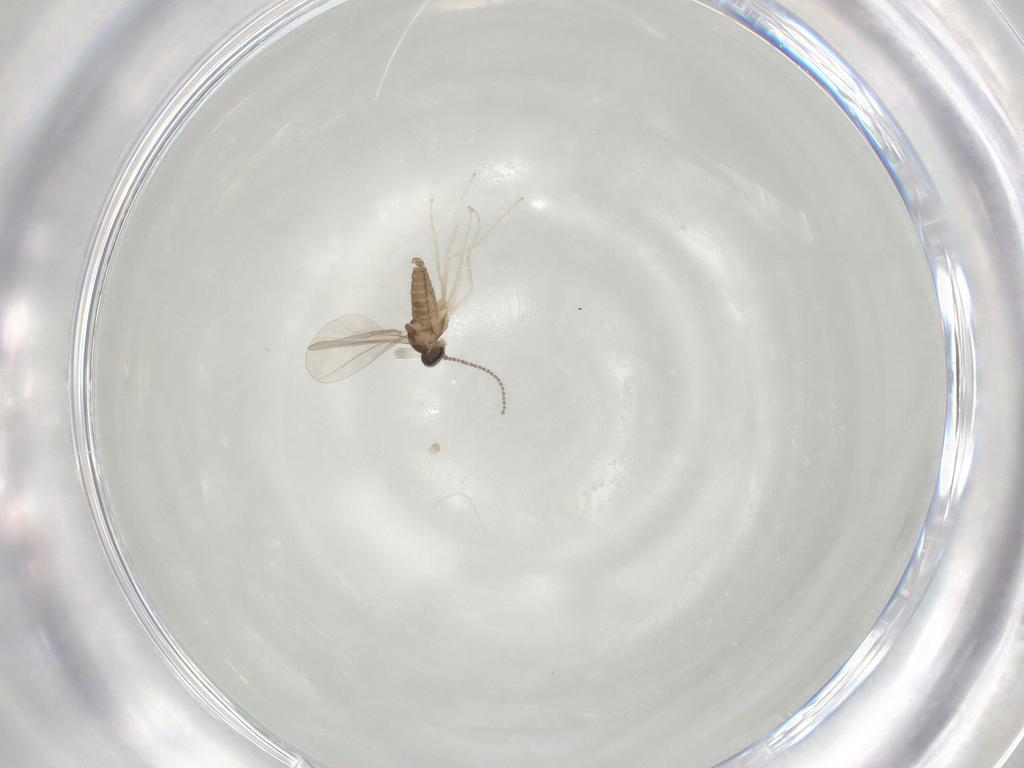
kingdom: Animalia
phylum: Arthropoda
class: Insecta
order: Diptera
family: Cecidomyiidae
